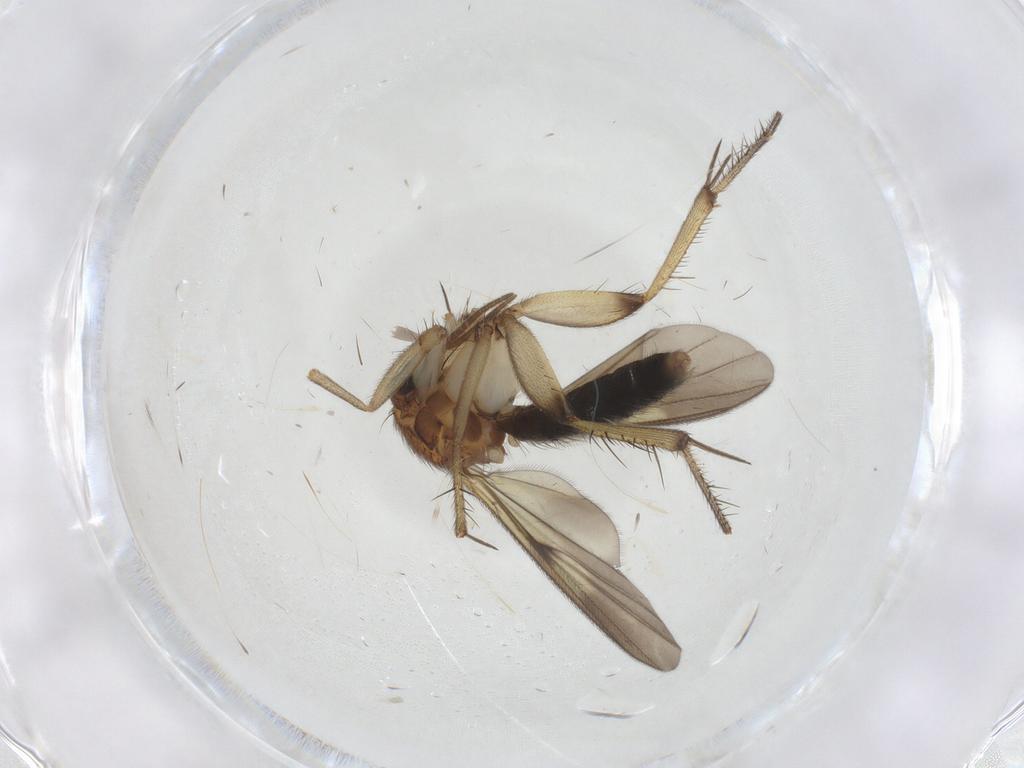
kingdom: Animalia
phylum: Arthropoda
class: Insecta
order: Diptera
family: Mycetophilidae
